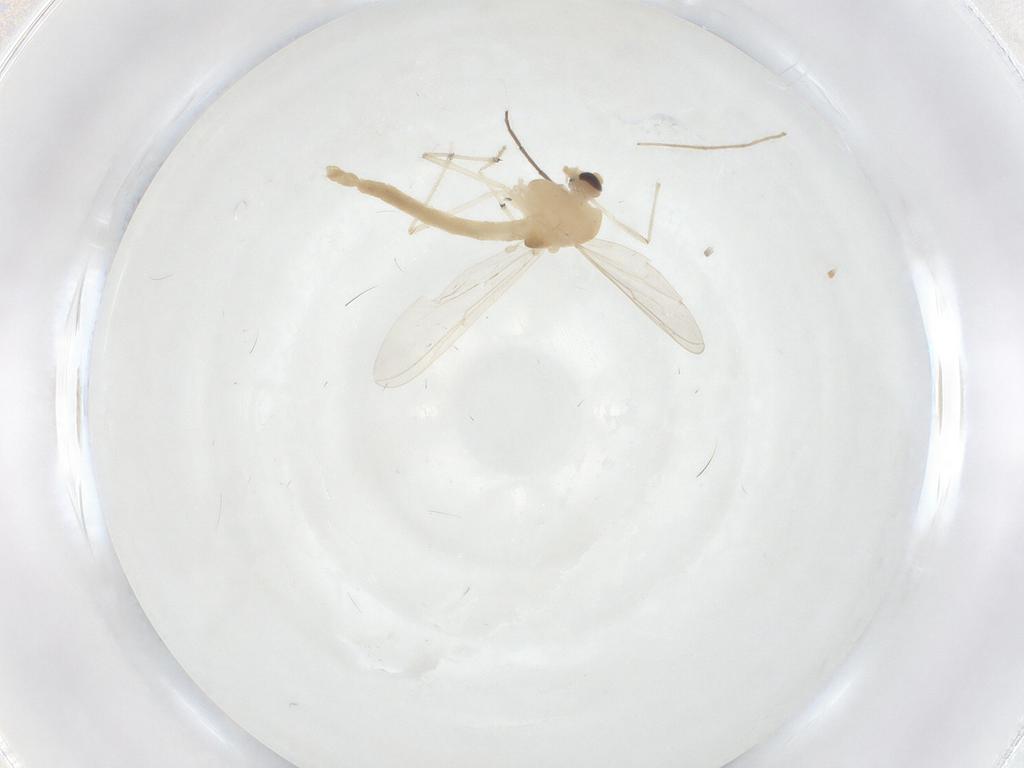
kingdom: Animalia
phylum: Arthropoda
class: Insecta
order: Diptera
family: Chironomidae
